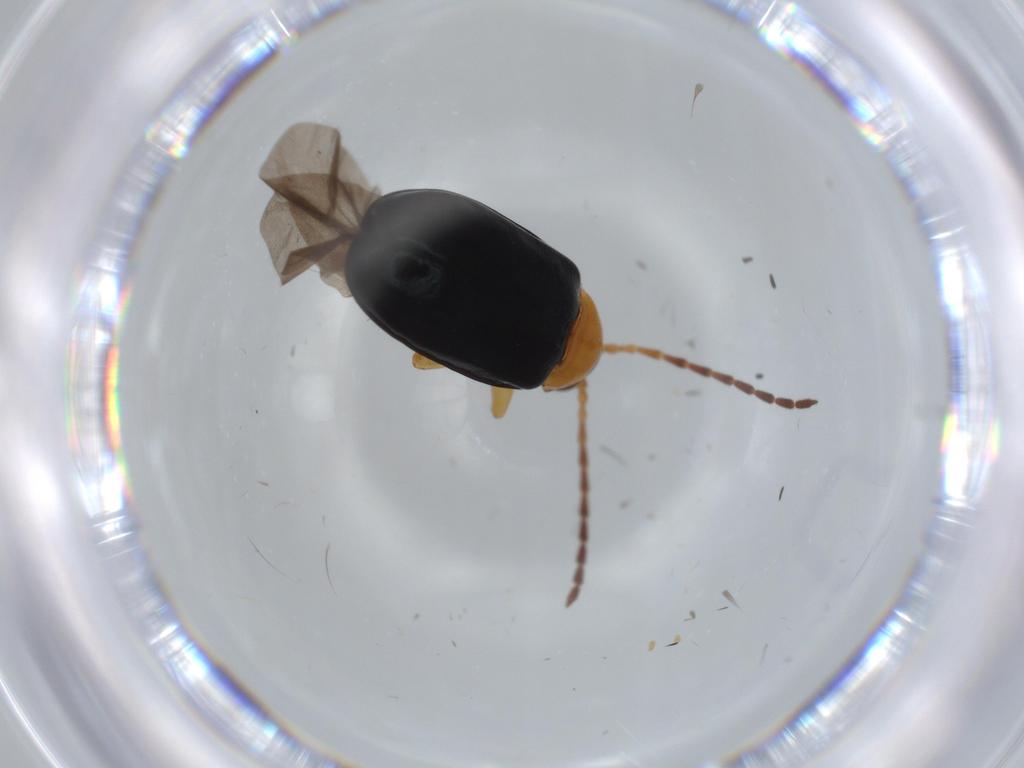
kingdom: Animalia
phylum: Arthropoda
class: Insecta
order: Coleoptera
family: Chrysomelidae
